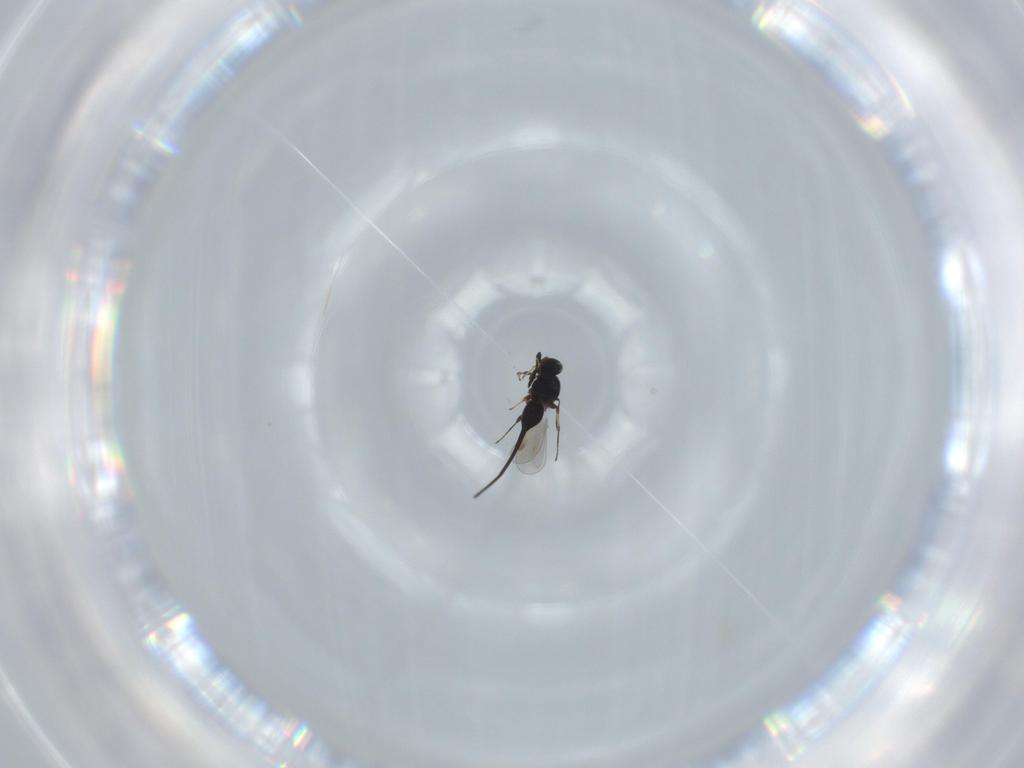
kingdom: Animalia
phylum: Arthropoda
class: Insecta
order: Hymenoptera
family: Platygastridae
